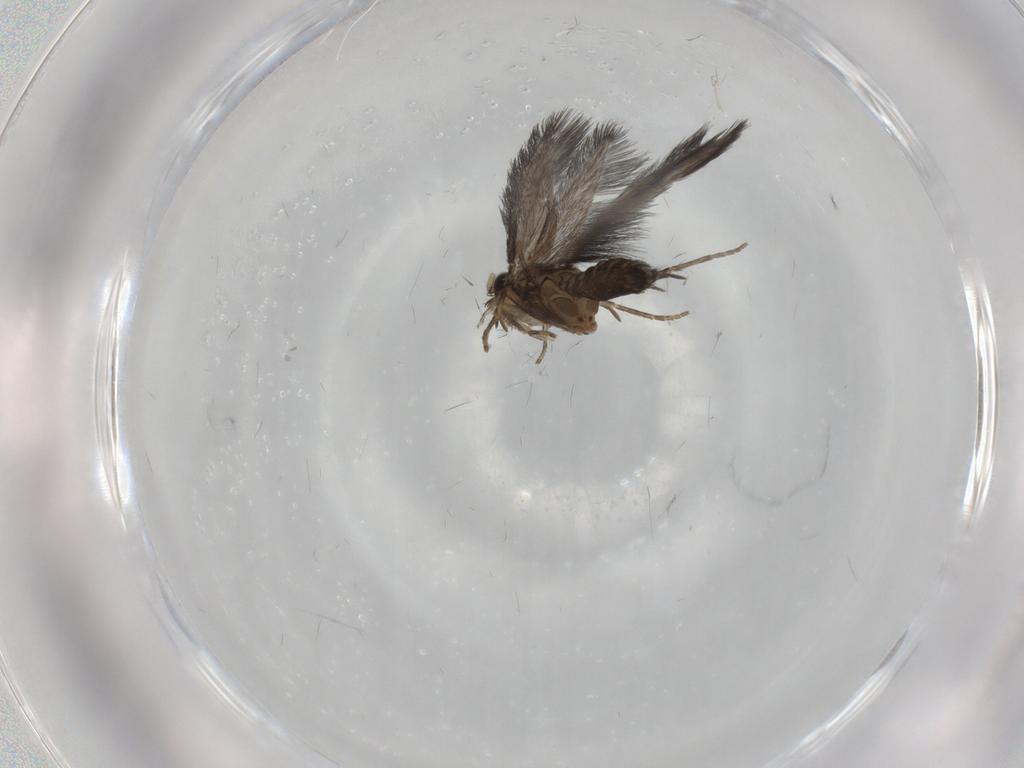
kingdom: Animalia
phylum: Arthropoda
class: Insecta
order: Trichoptera
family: Hydroptilidae
